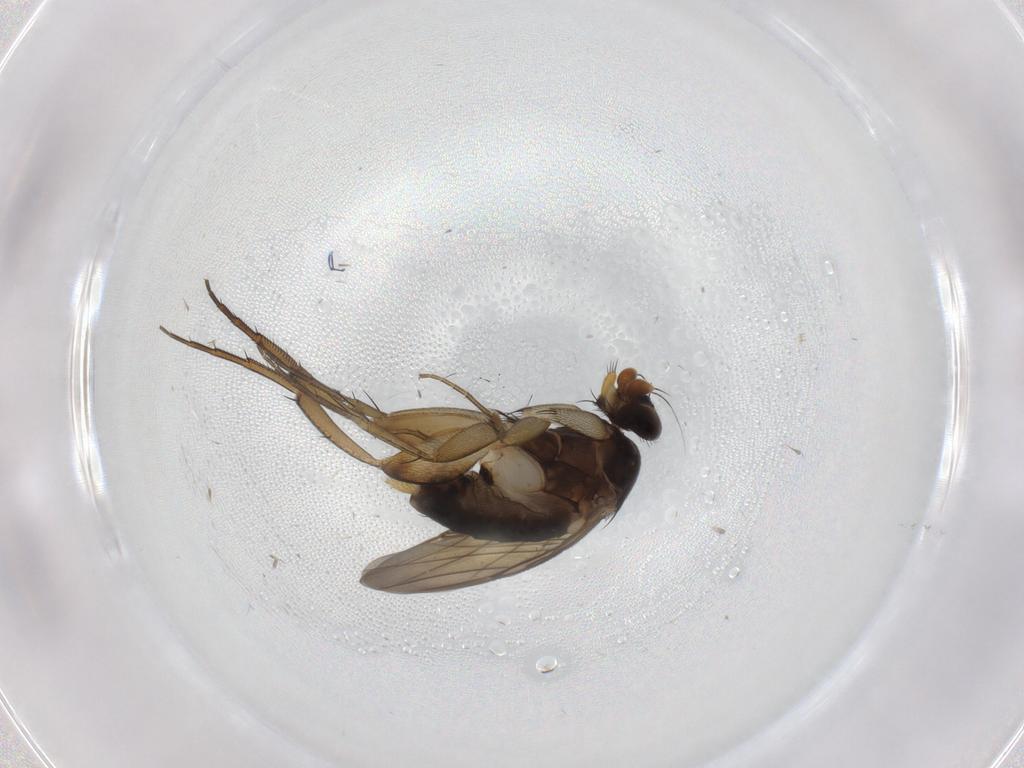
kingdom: Animalia
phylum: Arthropoda
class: Insecta
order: Diptera
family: Phoridae
